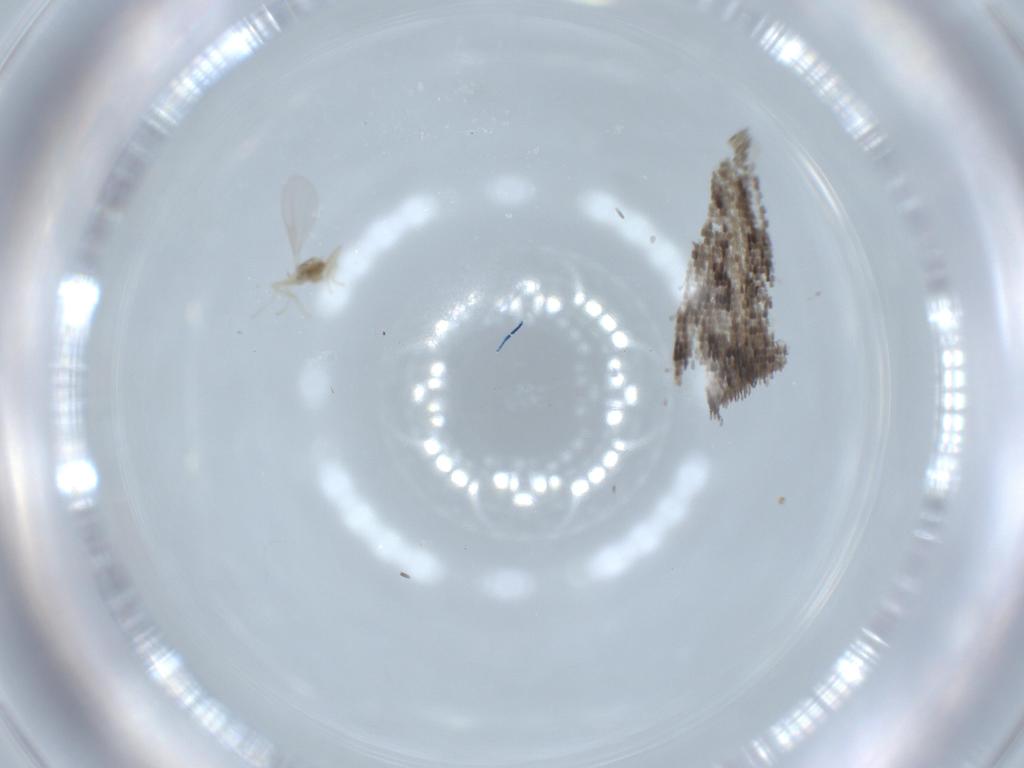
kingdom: Animalia
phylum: Arthropoda
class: Insecta
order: Diptera
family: Cecidomyiidae
